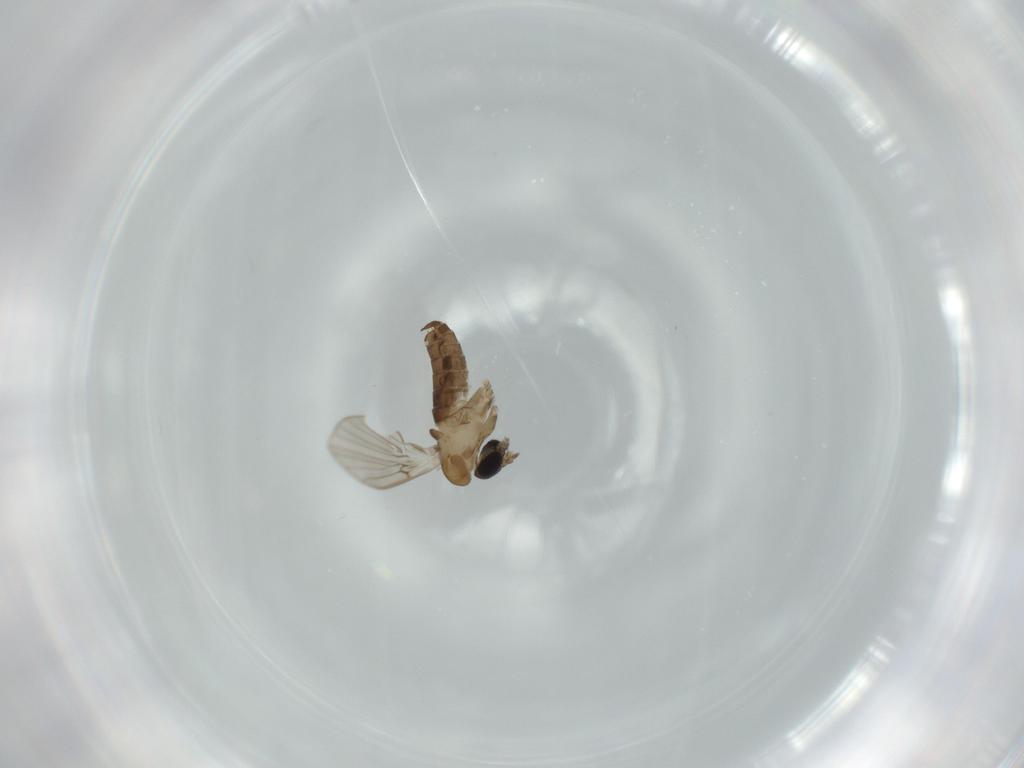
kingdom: Animalia
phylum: Arthropoda
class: Insecta
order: Diptera
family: Psychodidae
